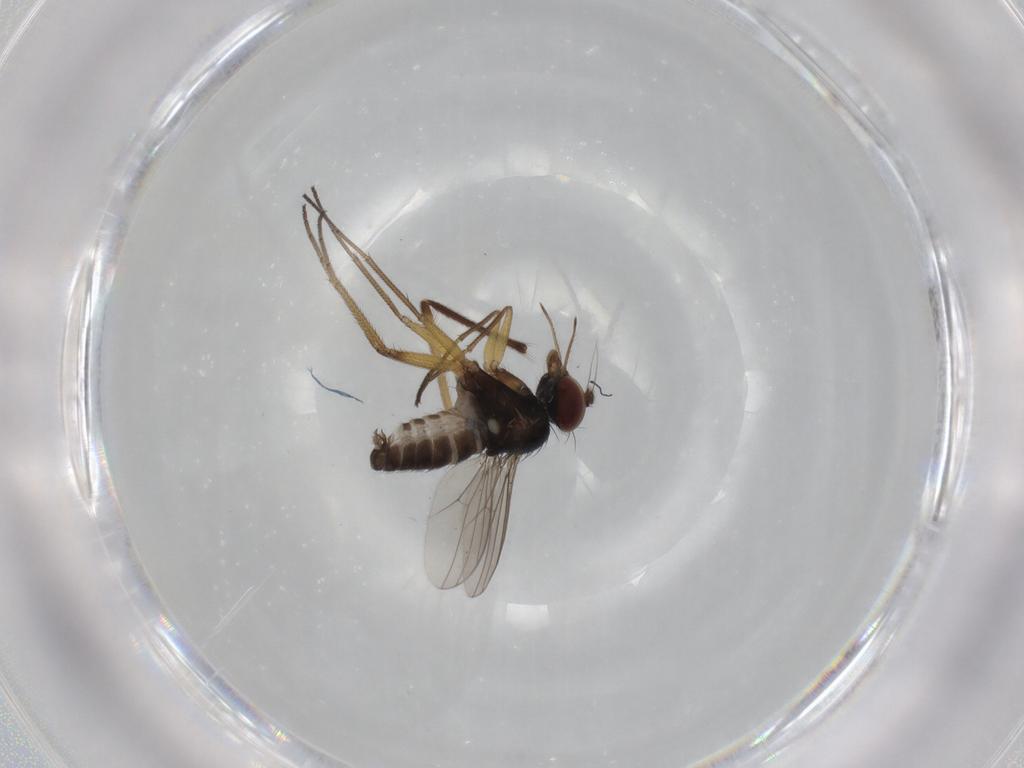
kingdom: Animalia
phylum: Arthropoda
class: Insecta
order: Diptera
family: Dolichopodidae
